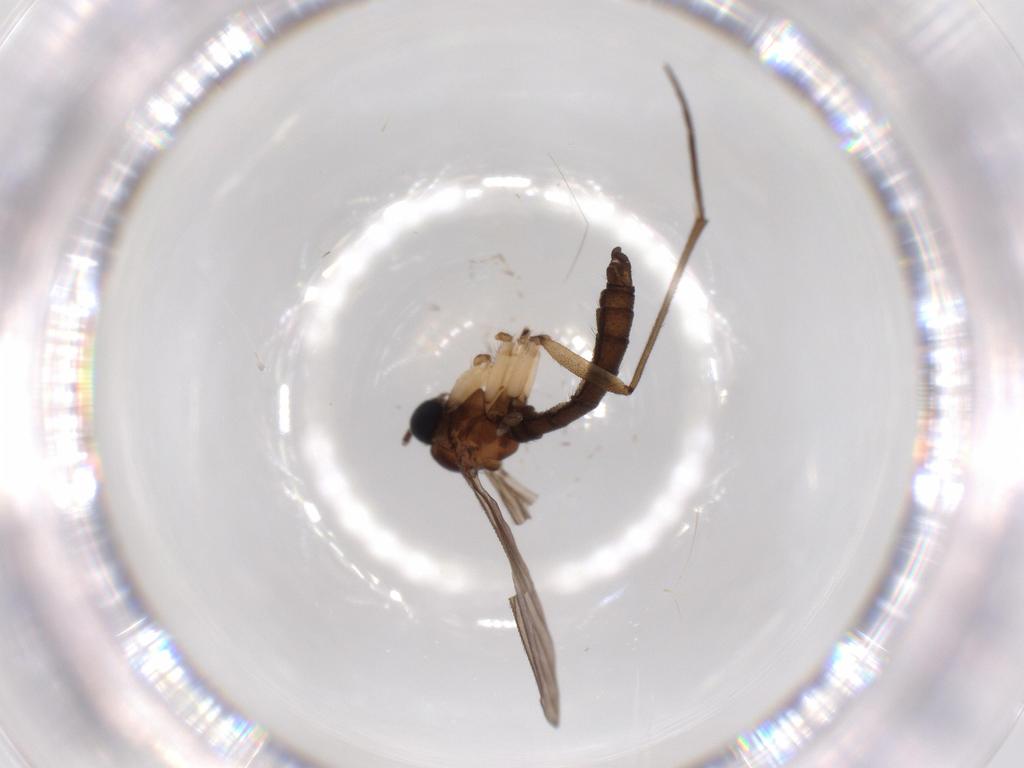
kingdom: Animalia
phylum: Arthropoda
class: Insecta
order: Diptera
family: Sciaridae
